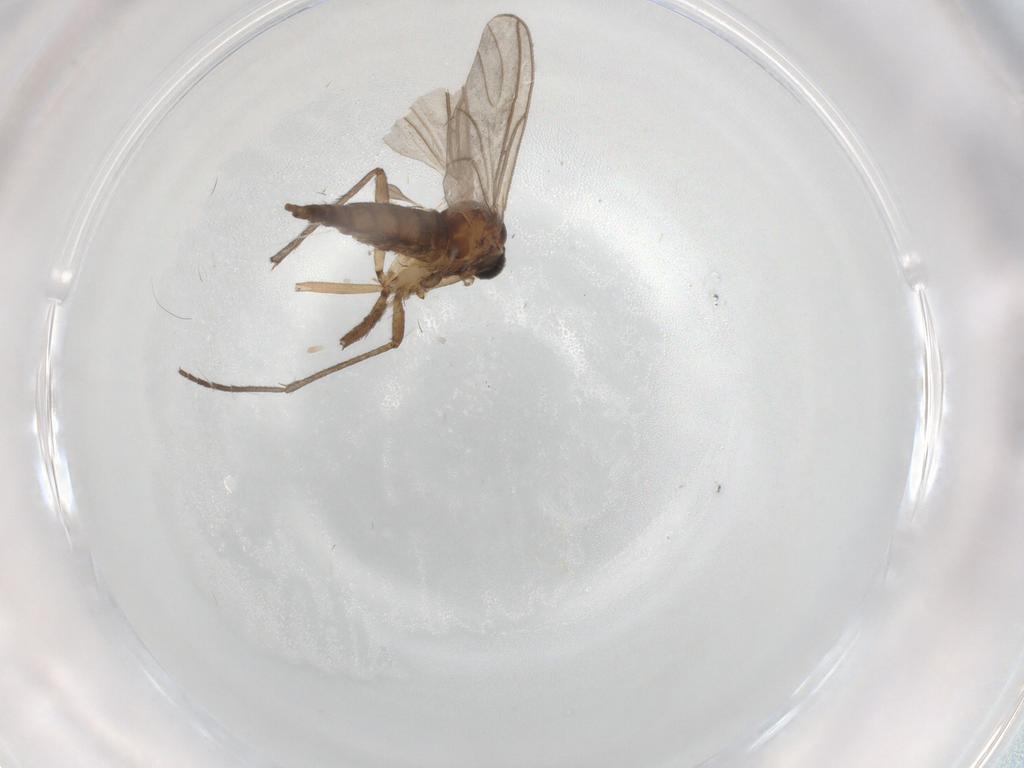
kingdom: Animalia
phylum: Arthropoda
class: Insecta
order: Diptera
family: Sciaridae
